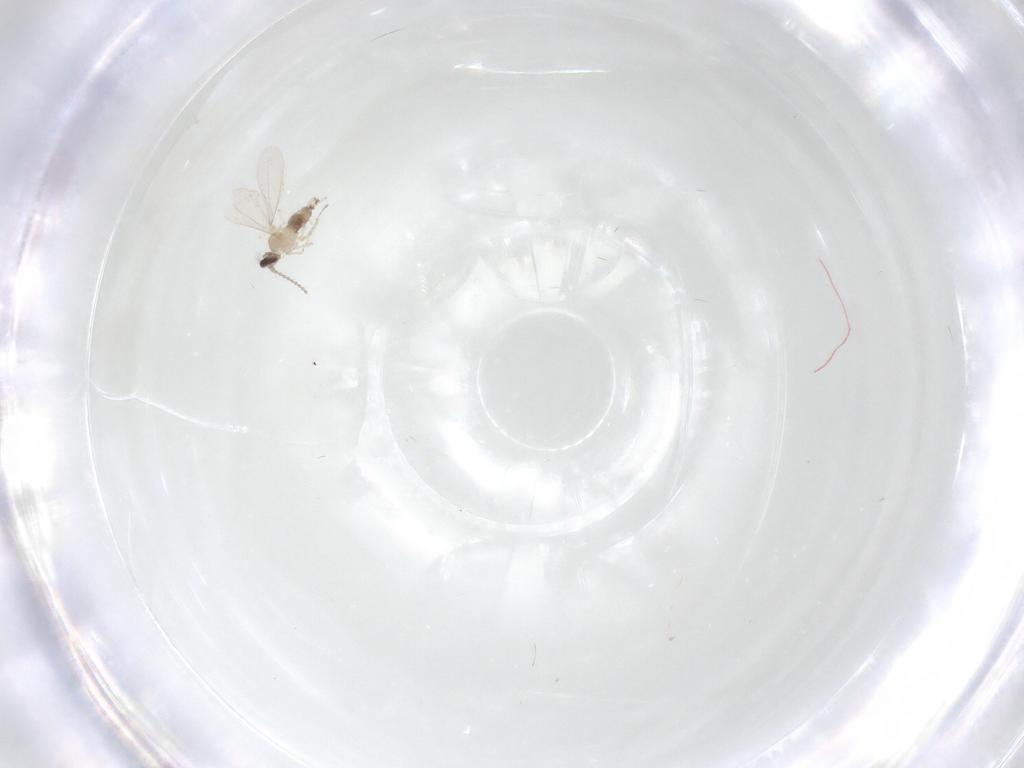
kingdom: Animalia
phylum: Arthropoda
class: Insecta
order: Diptera
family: Cecidomyiidae
